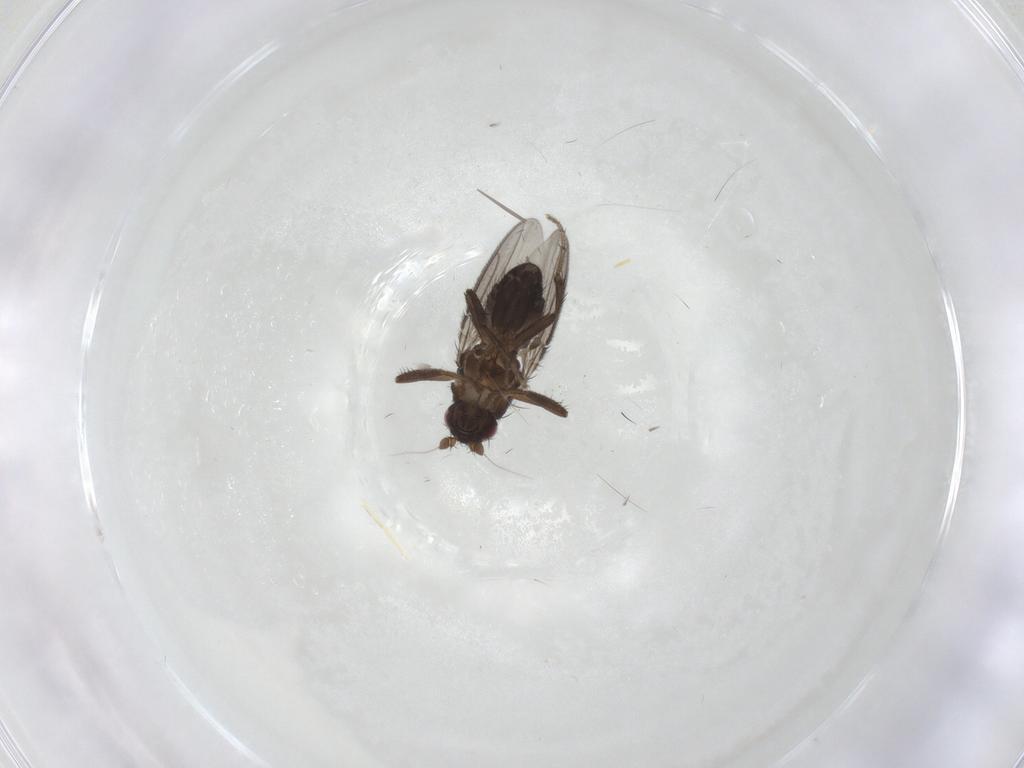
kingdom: Animalia
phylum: Arthropoda
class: Insecta
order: Diptera
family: Sphaeroceridae
